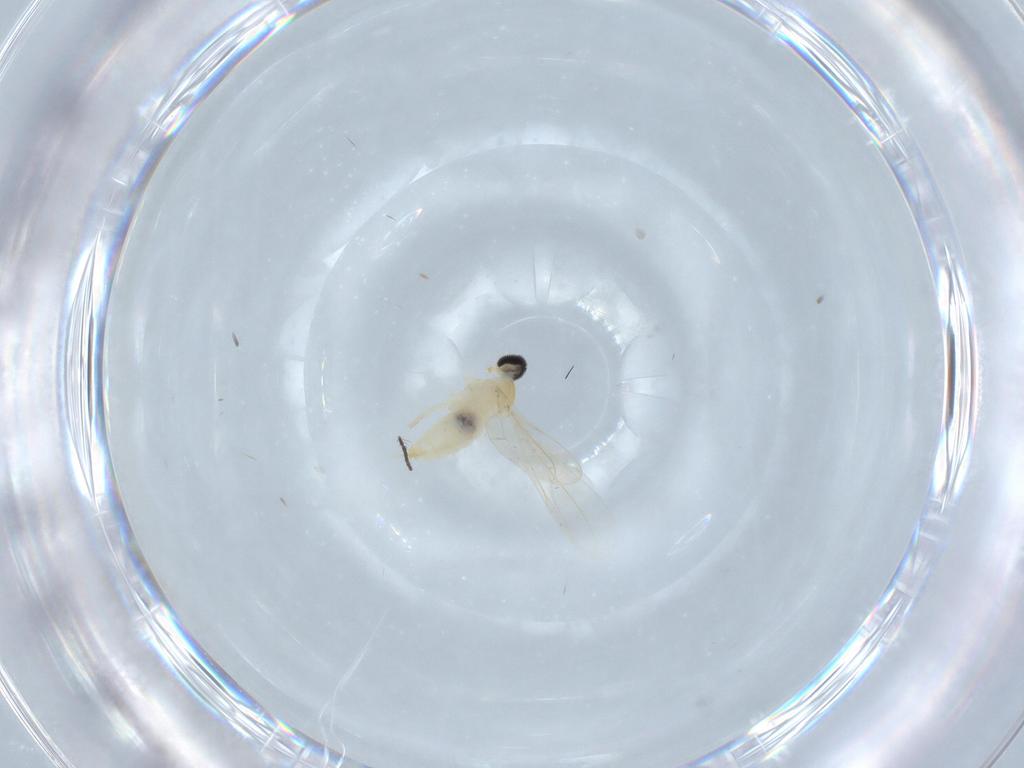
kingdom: Animalia
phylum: Arthropoda
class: Insecta
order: Diptera
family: Cecidomyiidae
